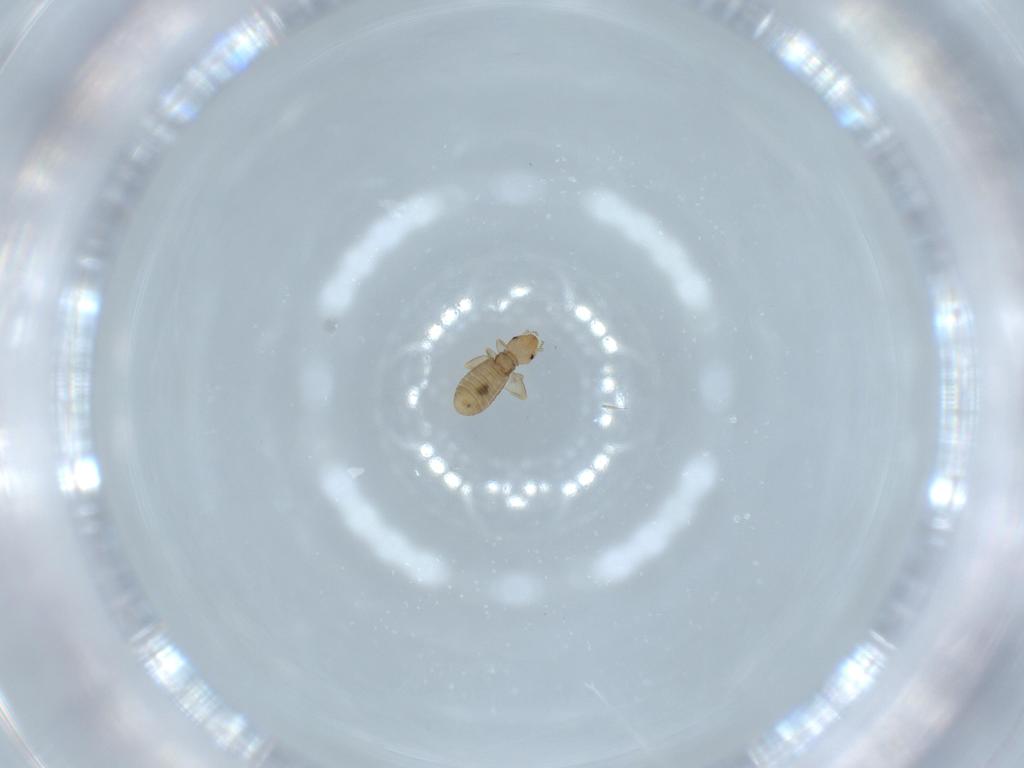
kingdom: Animalia
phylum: Arthropoda
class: Insecta
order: Psocodea
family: Liposcelididae
